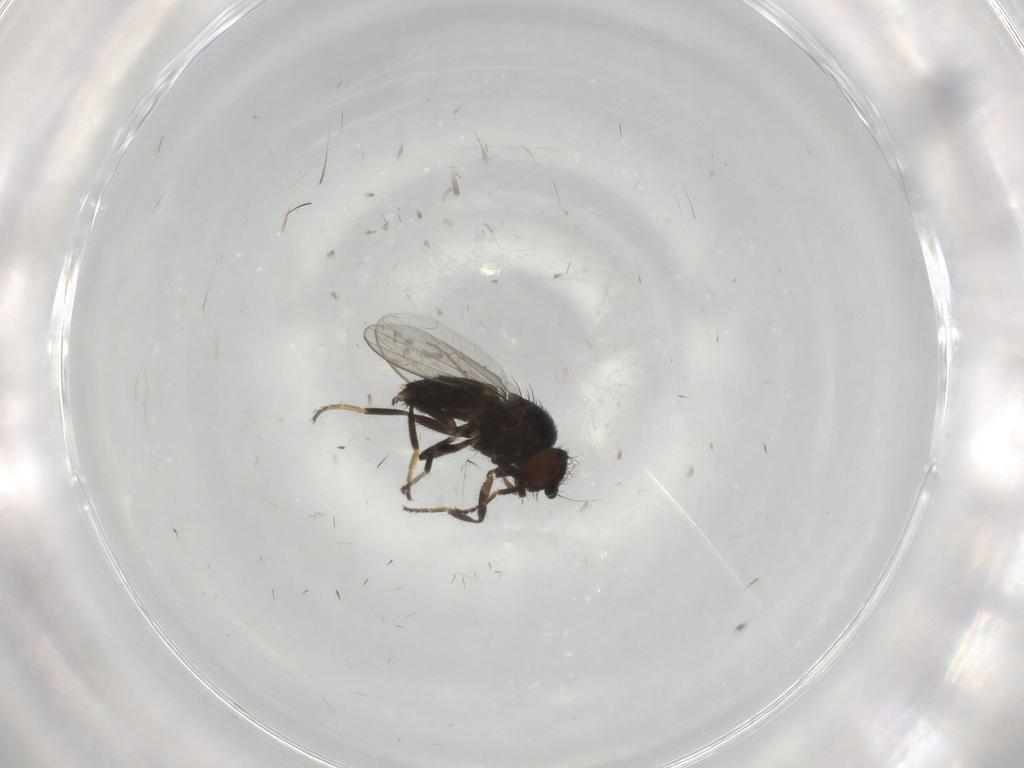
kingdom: Animalia
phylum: Arthropoda
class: Insecta
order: Diptera
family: Milichiidae
